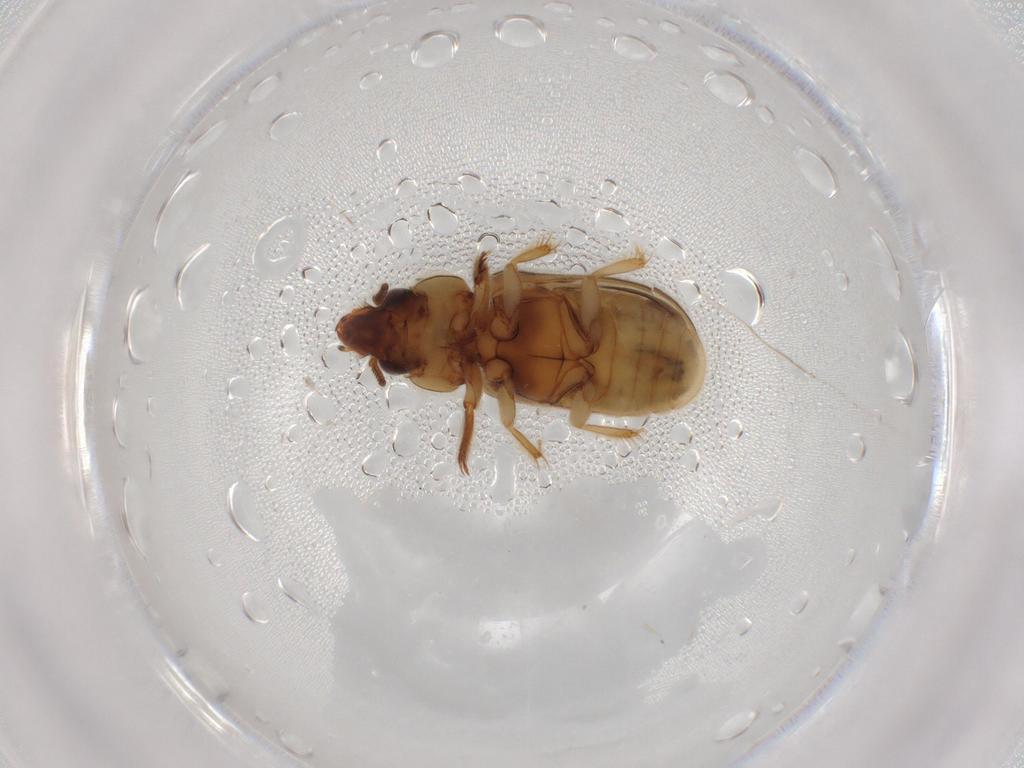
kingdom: Animalia
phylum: Arthropoda
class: Insecta
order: Coleoptera
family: Heteroceridae
